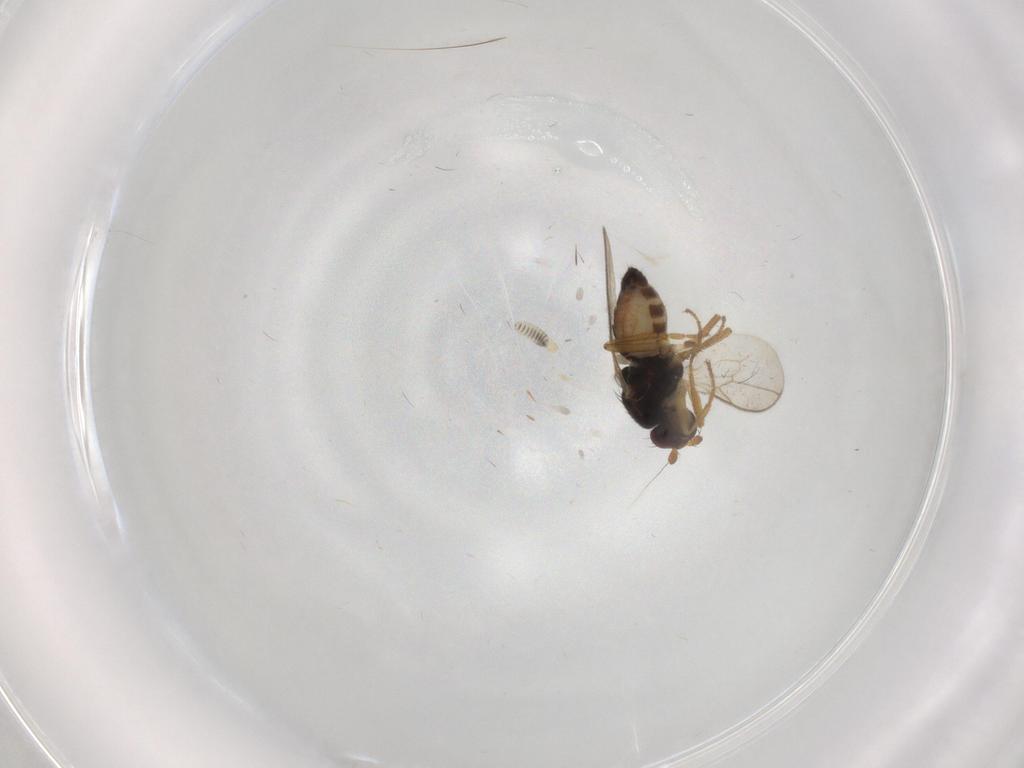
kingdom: Animalia
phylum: Arthropoda
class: Insecta
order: Diptera
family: Sphaeroceridae
